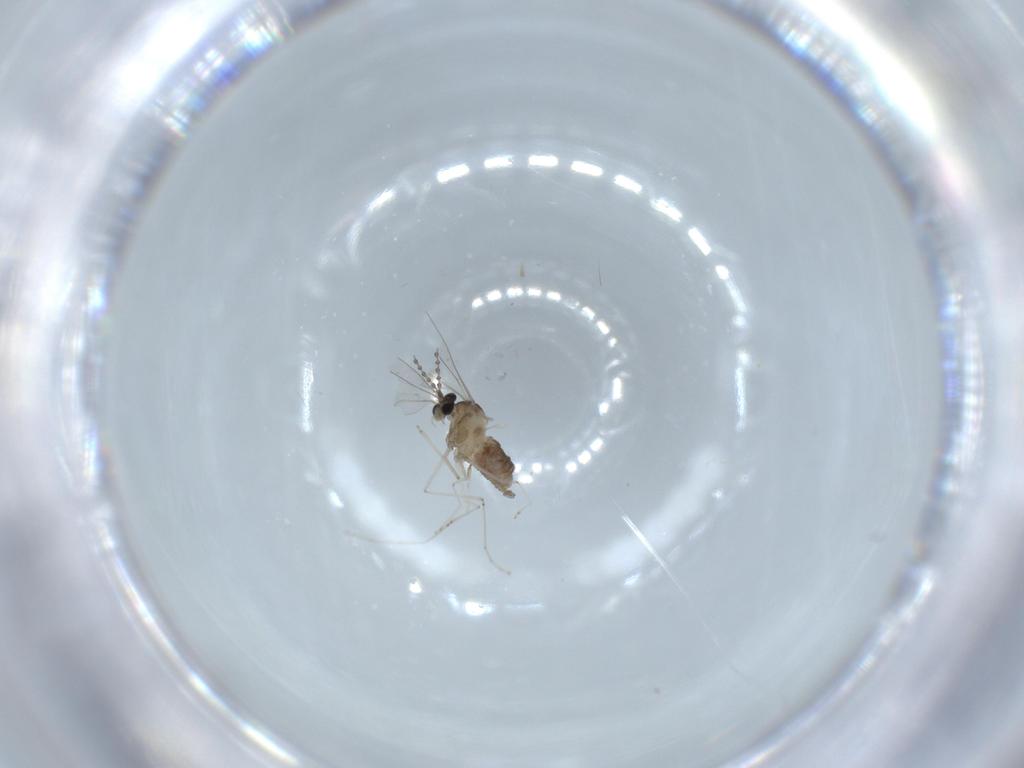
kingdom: Animalia
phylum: Arthropoda
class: Insecta
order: Diptera
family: Cecidomyiidae
